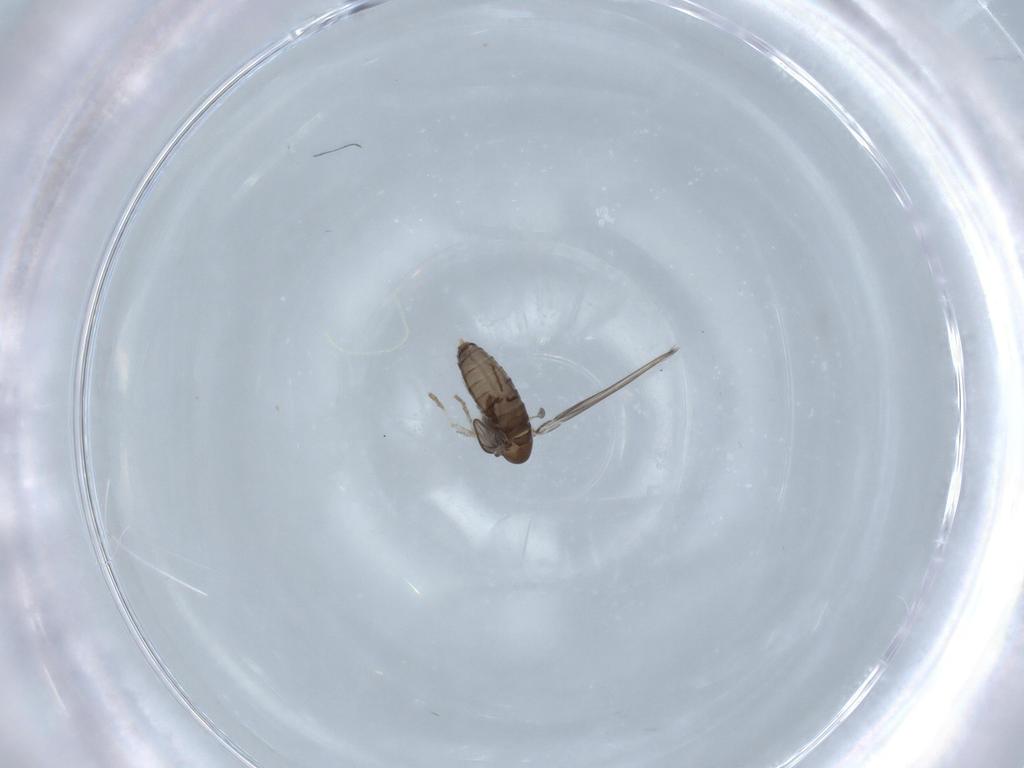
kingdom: Animalia
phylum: Arthropoda
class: Insecta
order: Diptera
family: Psychodidae
